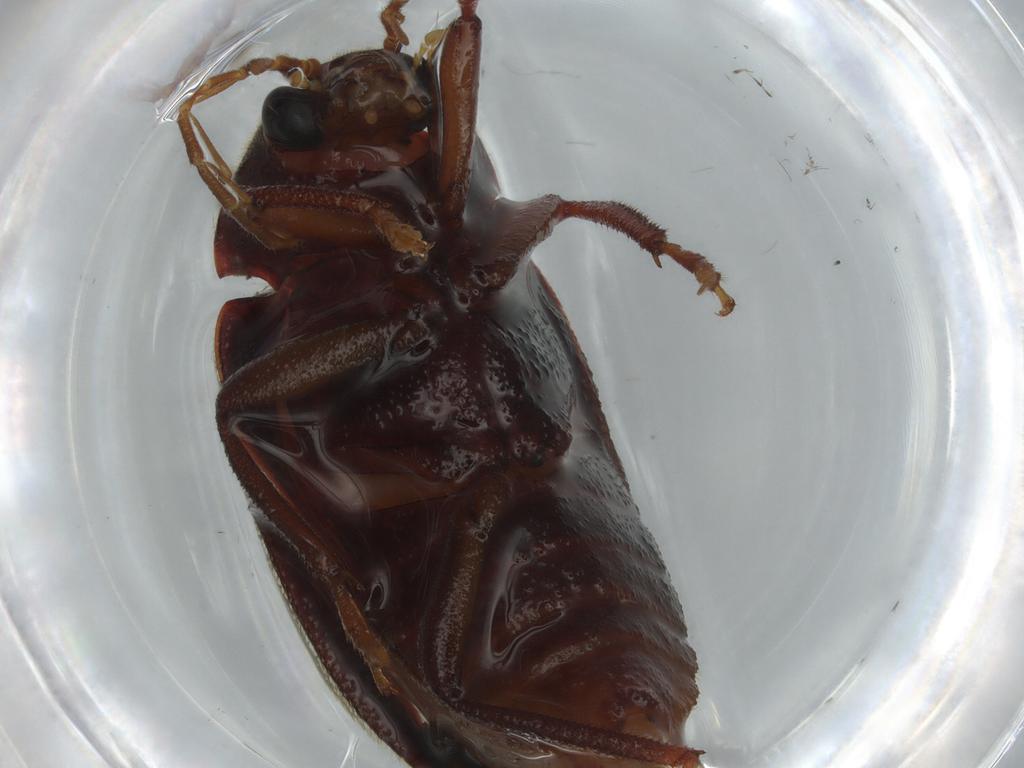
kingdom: Animalia
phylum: Arthropoda
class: Insecta
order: Coleoptera
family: Ptilodactylidae
